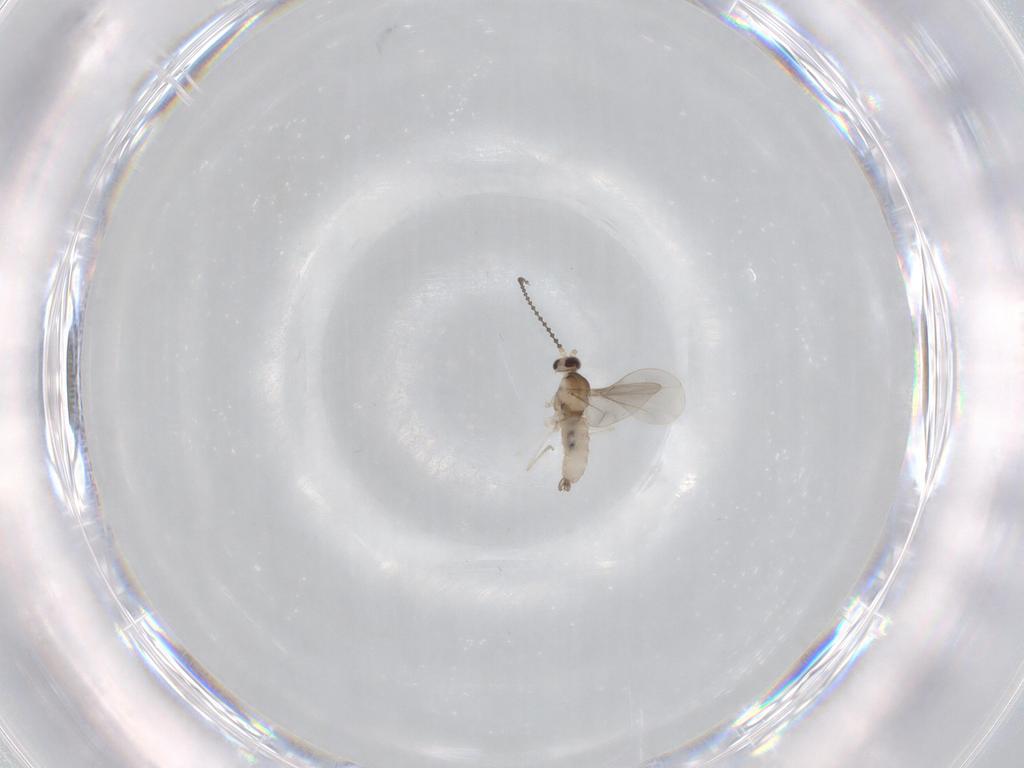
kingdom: Animalia
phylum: Arthropoda
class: Insecta
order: Diptera
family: Cecidomyiidae
